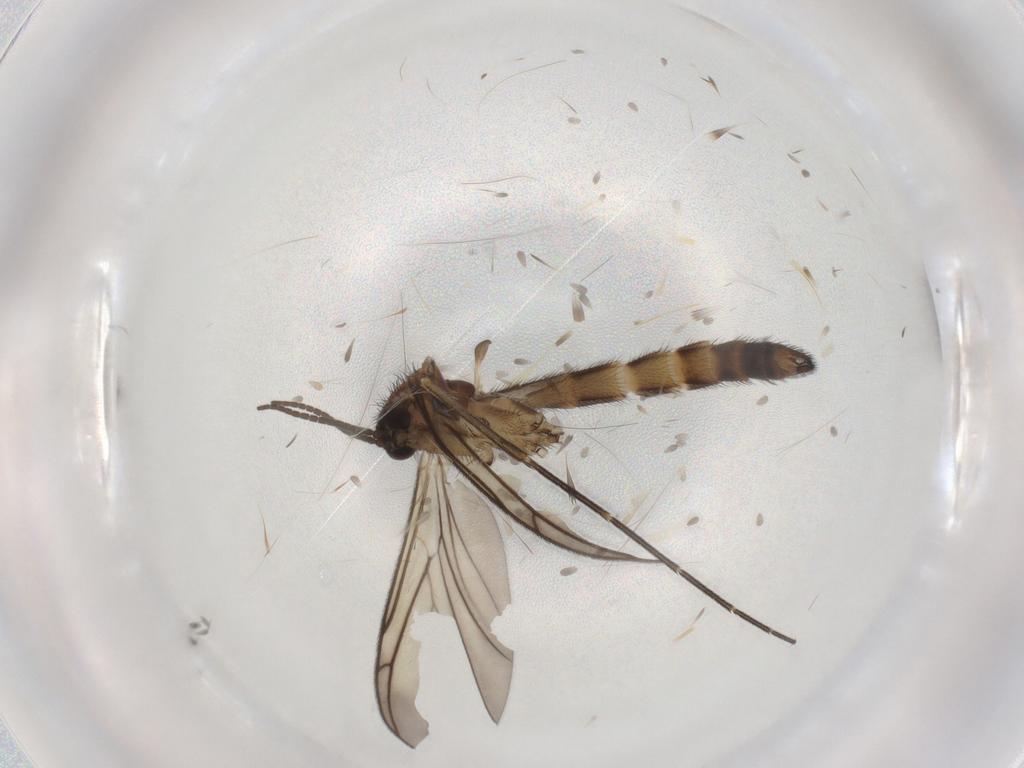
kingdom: Animalia
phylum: Arthropoda
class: Insecta
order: Diptera
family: Keroplatidae
